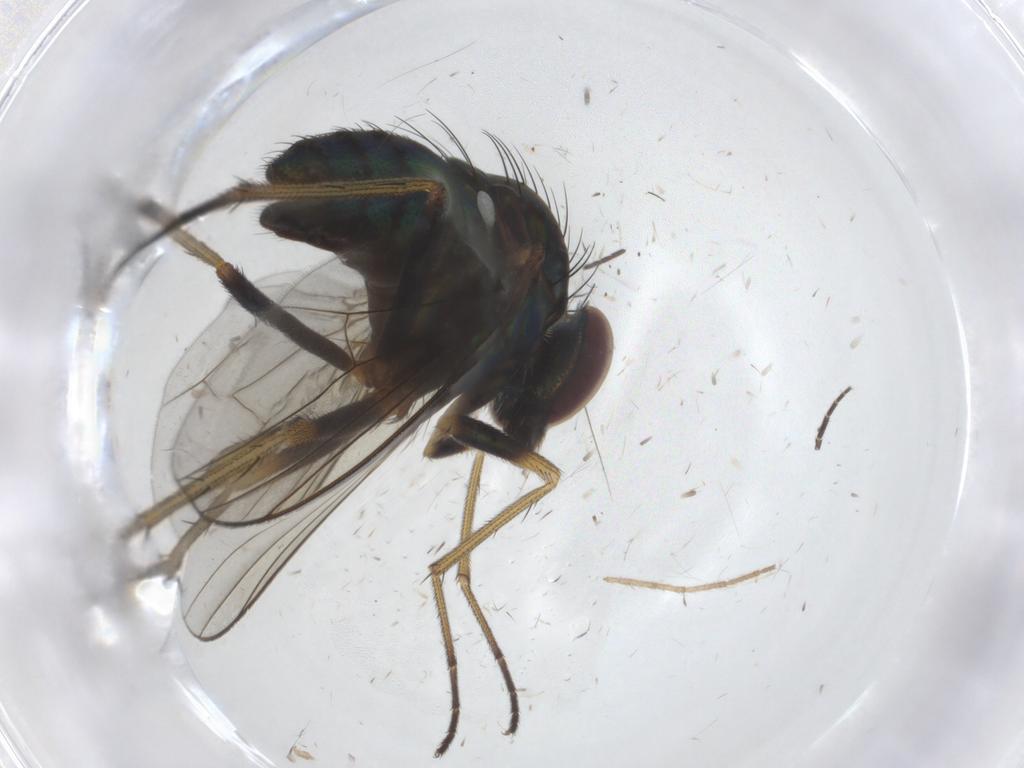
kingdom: Animalia
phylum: Arthropoda
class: Insecta
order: Diptera
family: Dolichopodidae
